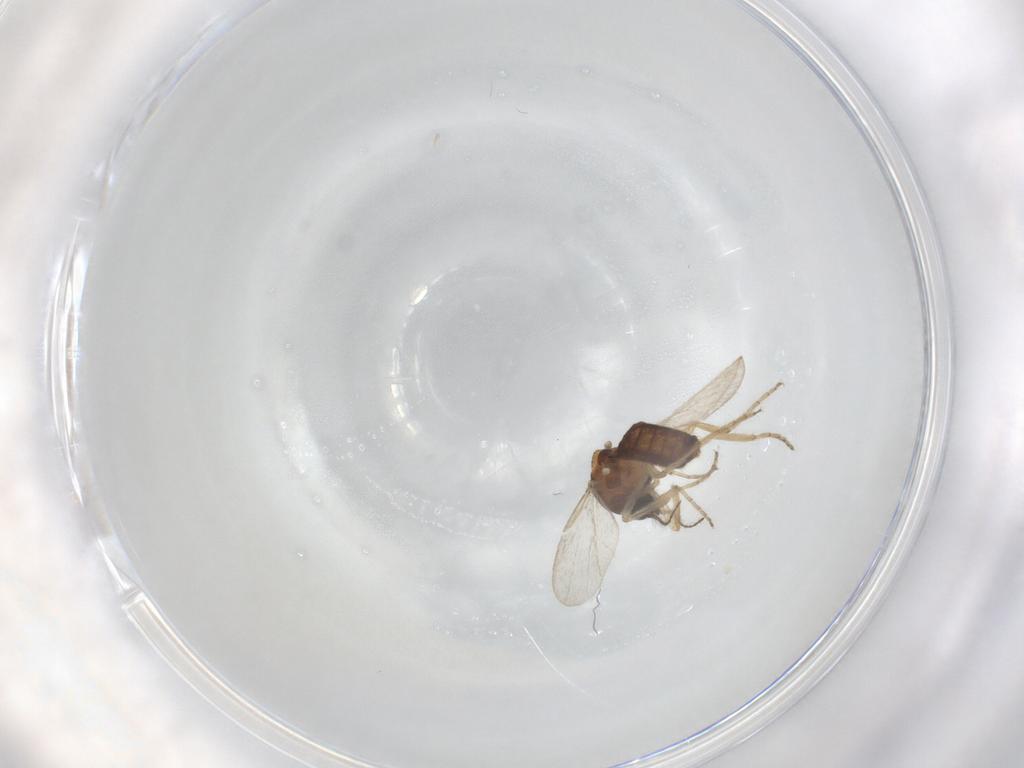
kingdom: Animalia
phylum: Arthropoda
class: Insecta
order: Diptera
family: Ceratopogonidae
